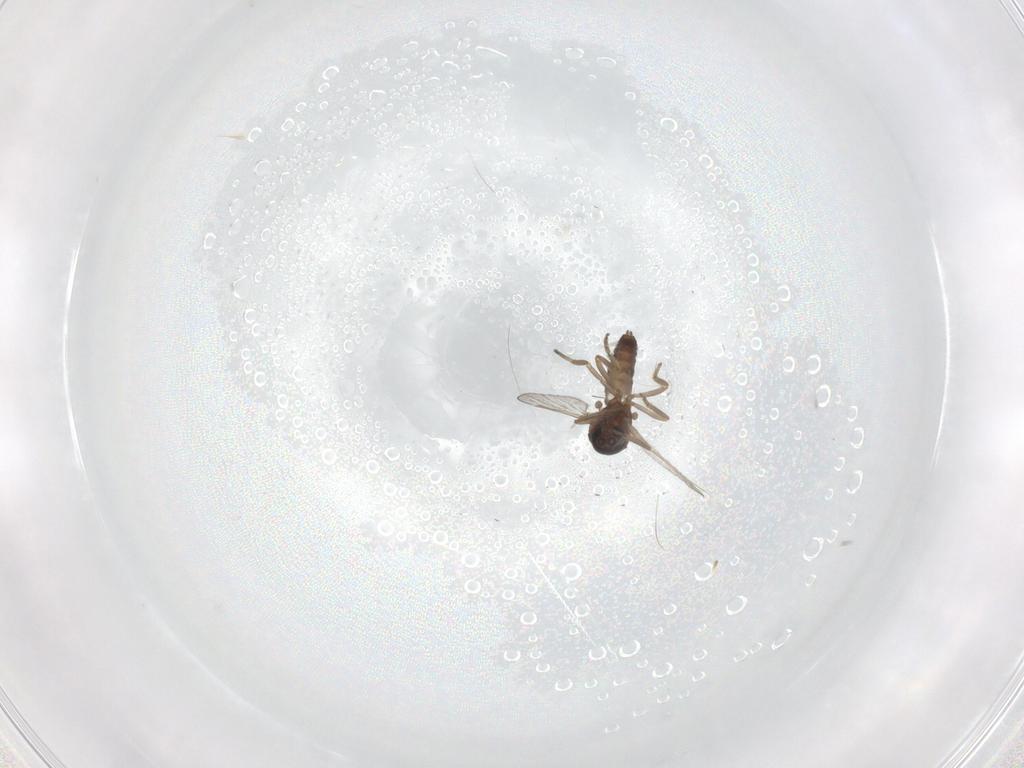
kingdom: Animalia
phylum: Arthropoda
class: Insecta
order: Diptera
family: Ceratopogonidae
